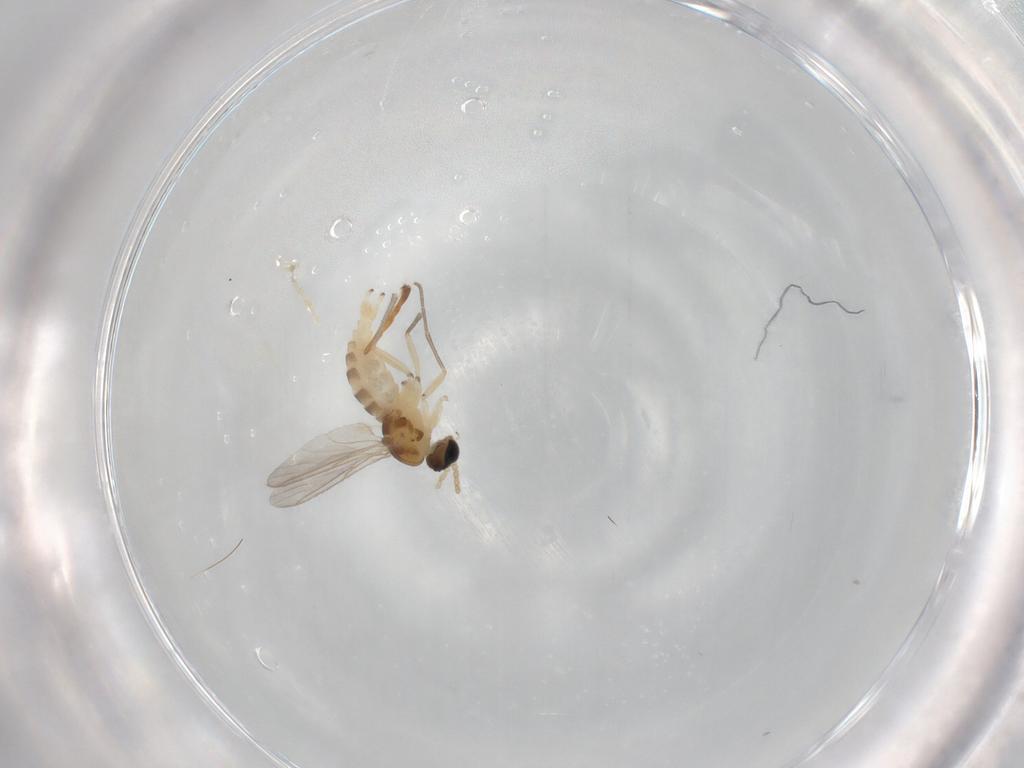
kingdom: Animalia
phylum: Arthropoda
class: Insecta
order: Diptera
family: Sciaridae
